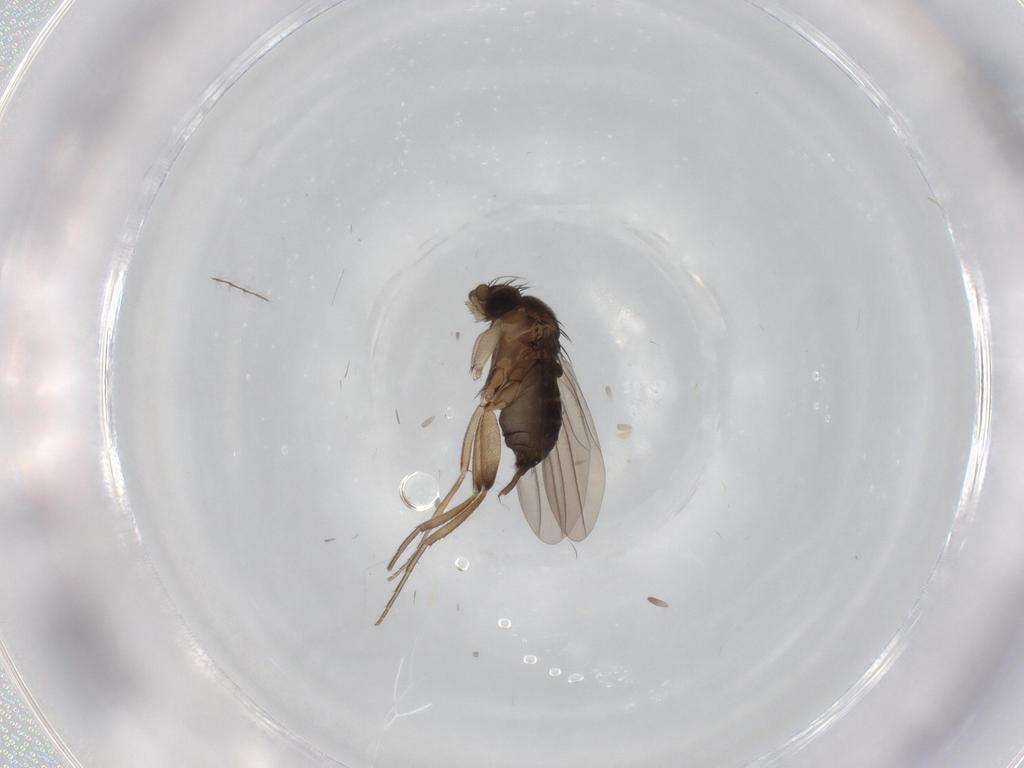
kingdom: Animalia
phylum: Arthropoda
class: Insecta
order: Diptera
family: Phoridae
